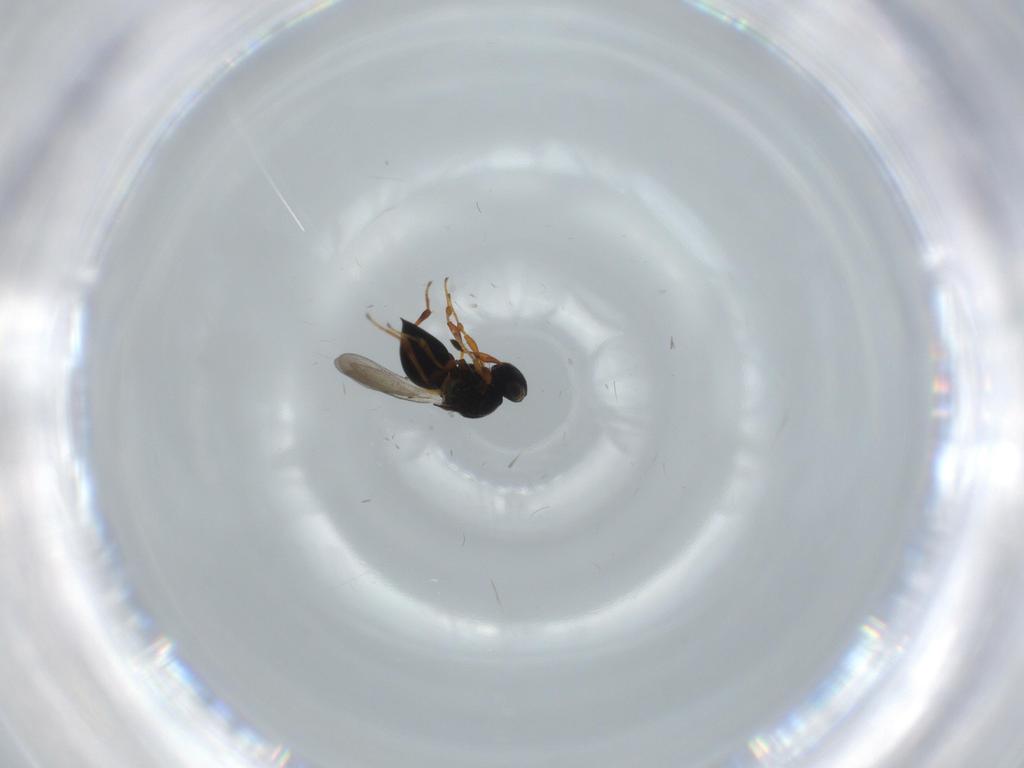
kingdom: Animalia
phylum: Arthropoda
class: Insecta
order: Hymenoptera
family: Platygastridae
